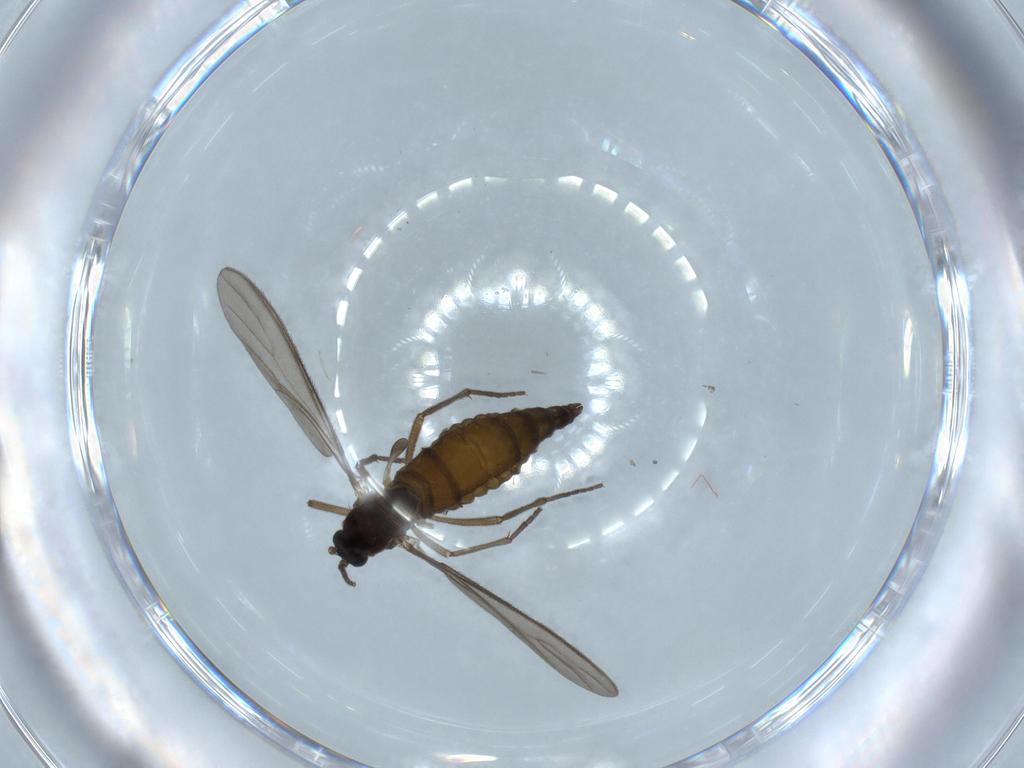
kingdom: Animalia
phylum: Arthropoda
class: Insecta
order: Diptera
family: Sciaridae
